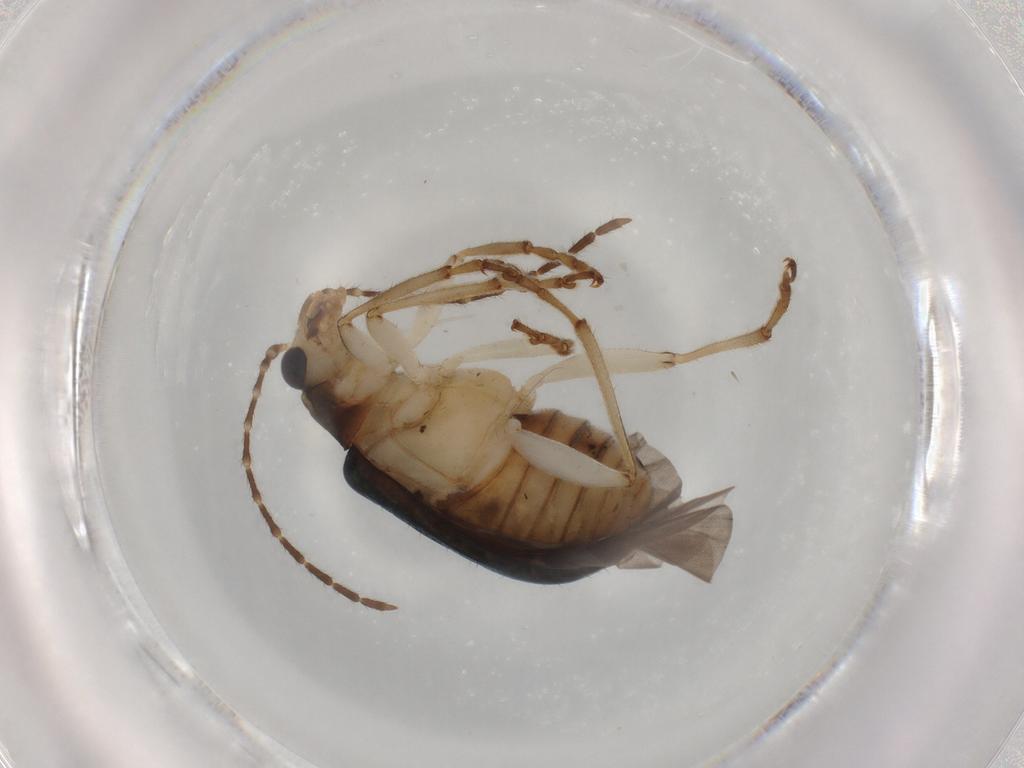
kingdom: Animalia
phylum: Arthropoda
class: Insecta
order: Coleoptera
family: Chrysomelidae
